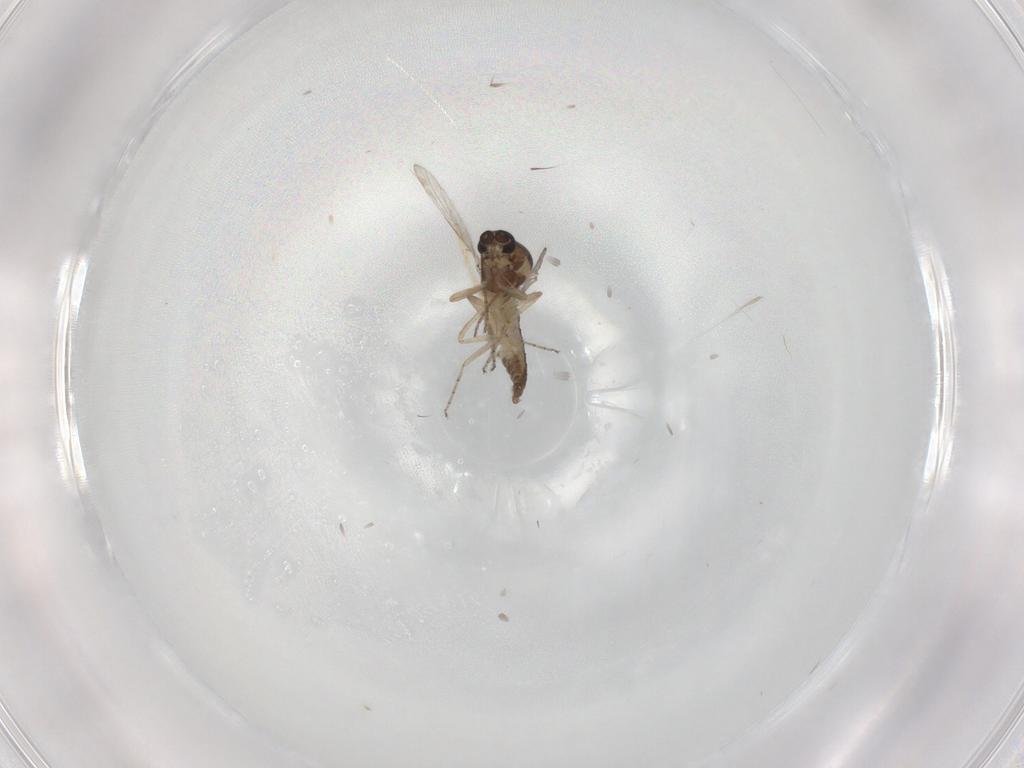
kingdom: Animalia
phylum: Arthropoda
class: Insecta
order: Diptera
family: Ceratopogonidae
